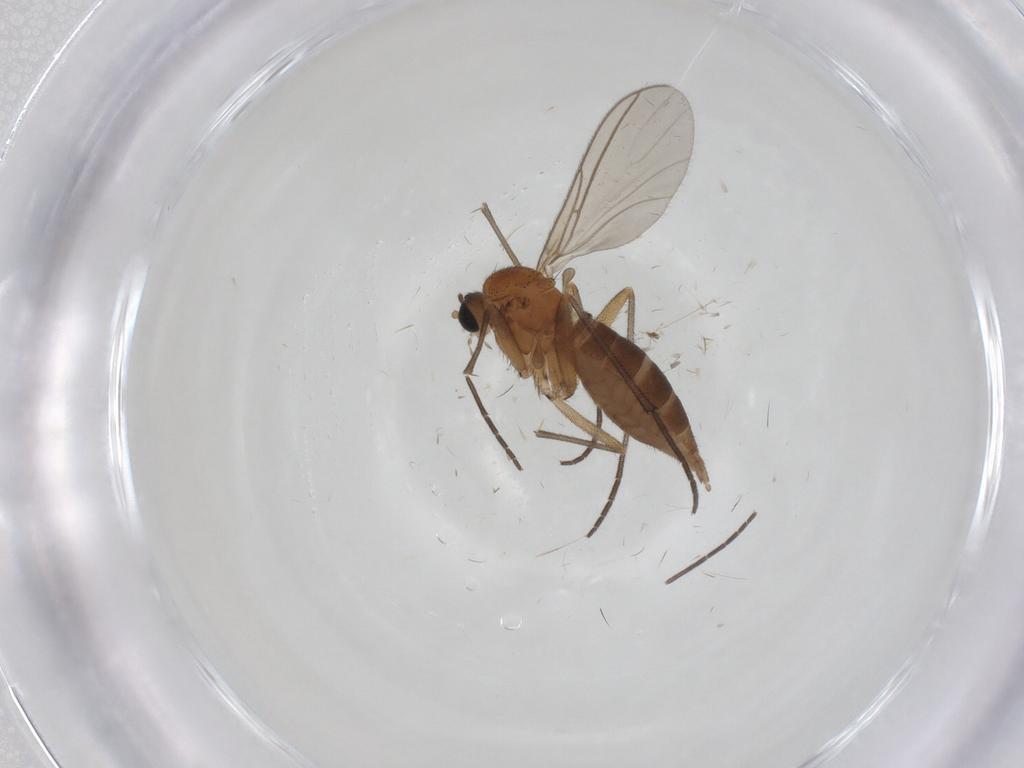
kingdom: Animalia
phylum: Arthropoda
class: Insecta
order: Diptera
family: Sciaridae
